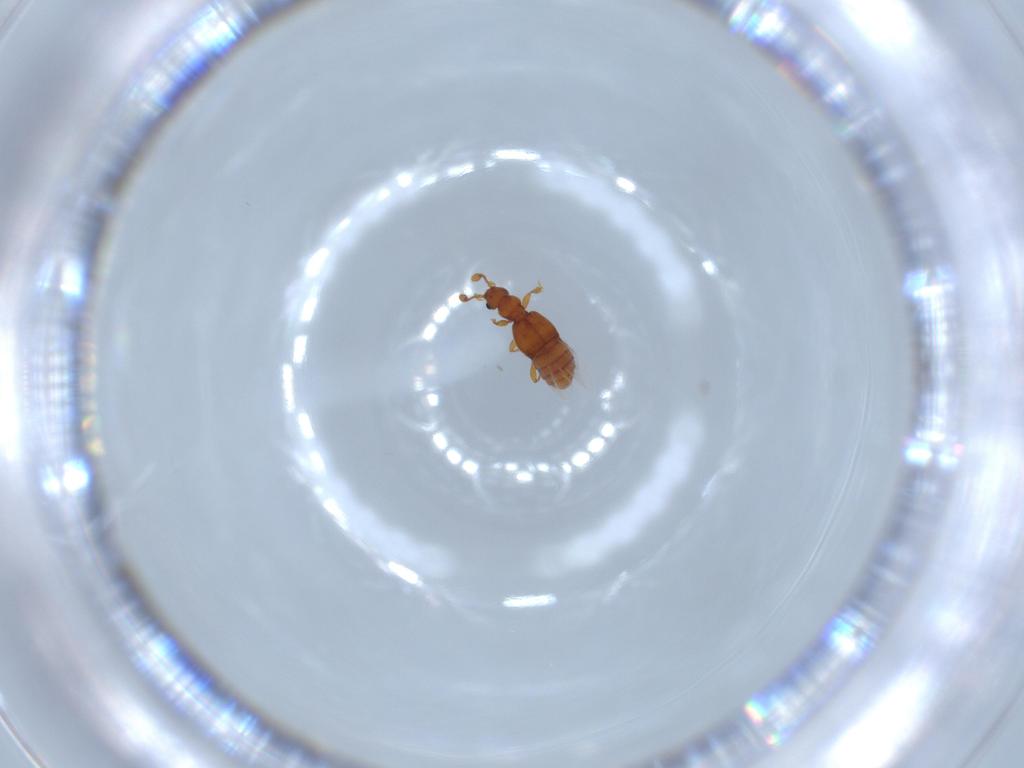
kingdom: Animalia
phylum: Arthropoda
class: Insecta
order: Coleoptera
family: Staphylinidae
